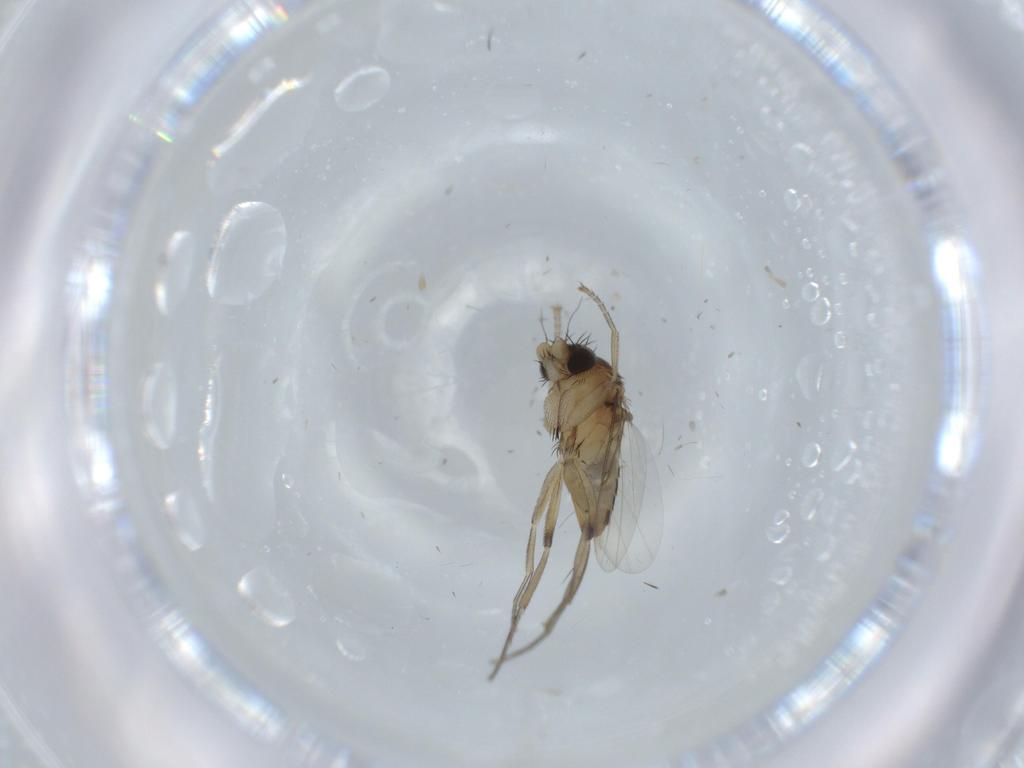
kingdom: Animalia
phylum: Arthropoda
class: Insecta
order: Diptera
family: Phoridae
